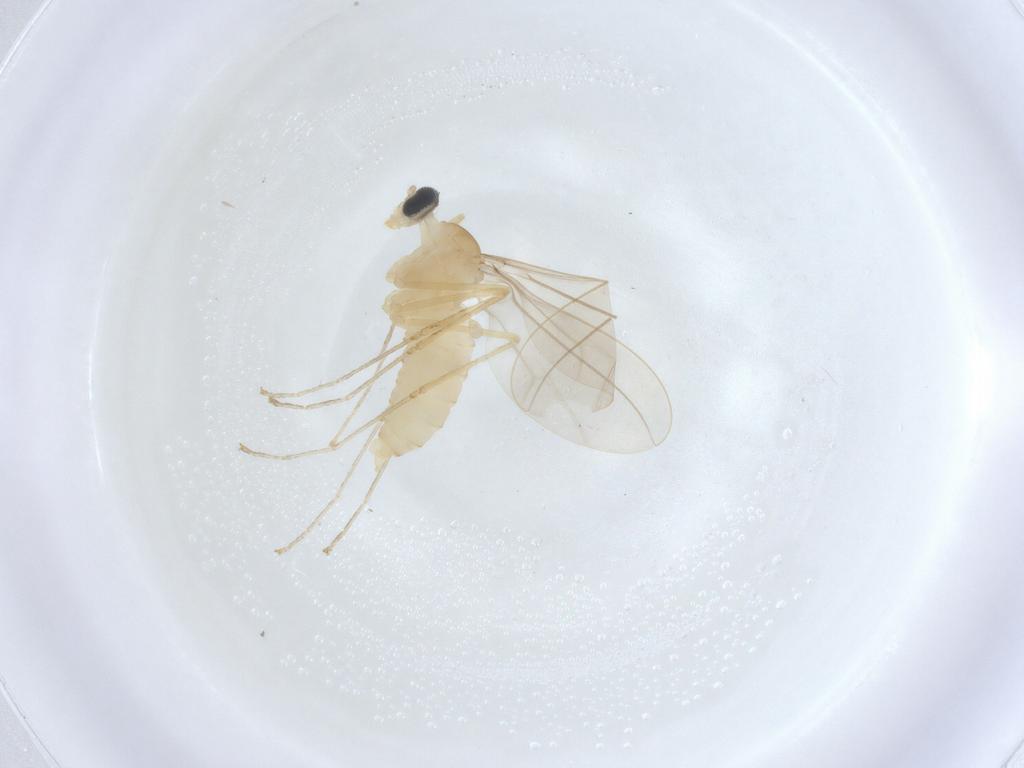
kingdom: Animalia
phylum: Arthropoda
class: Insecta
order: Diptera
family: Cecidomyiidae
